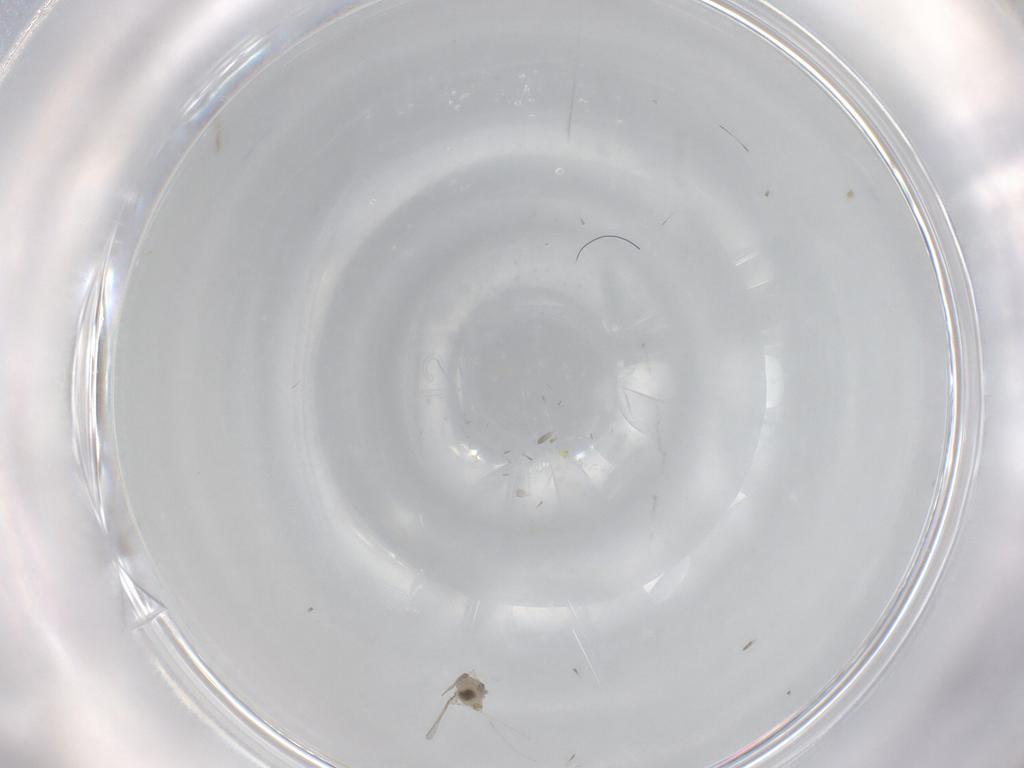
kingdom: Animalia
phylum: Arthropoda
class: Insecta
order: Diptera
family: Cecidomyiidae
